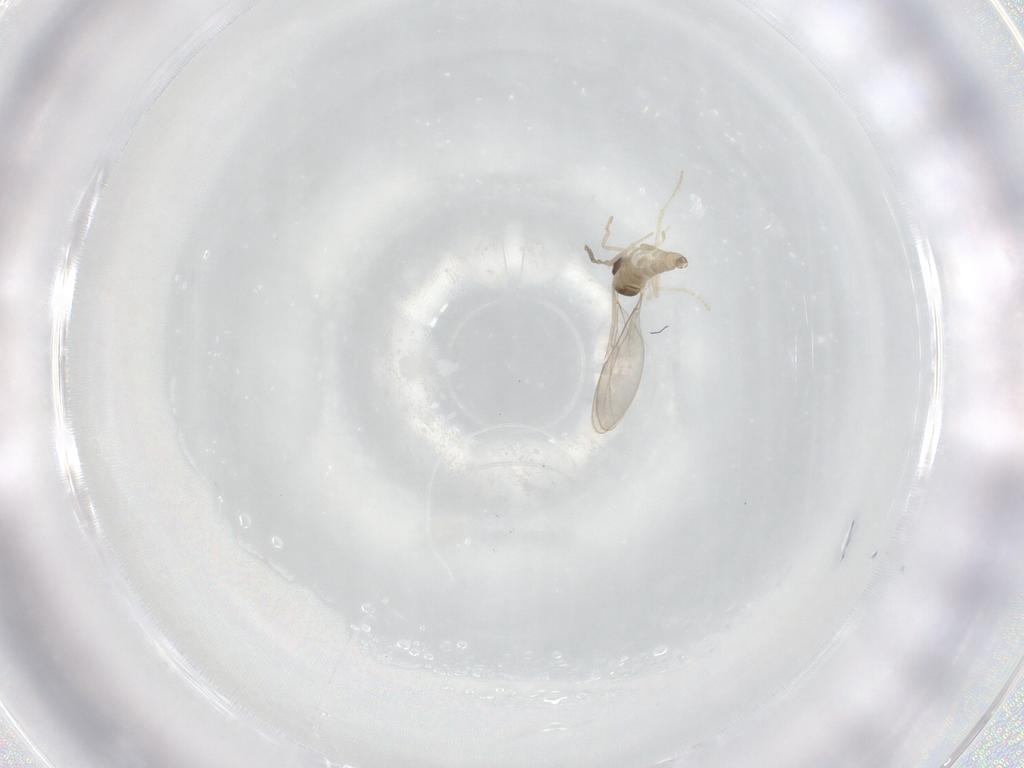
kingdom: Animalia
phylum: Arthropoda
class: Insecta
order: Diptera
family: Cecidomyiidae
